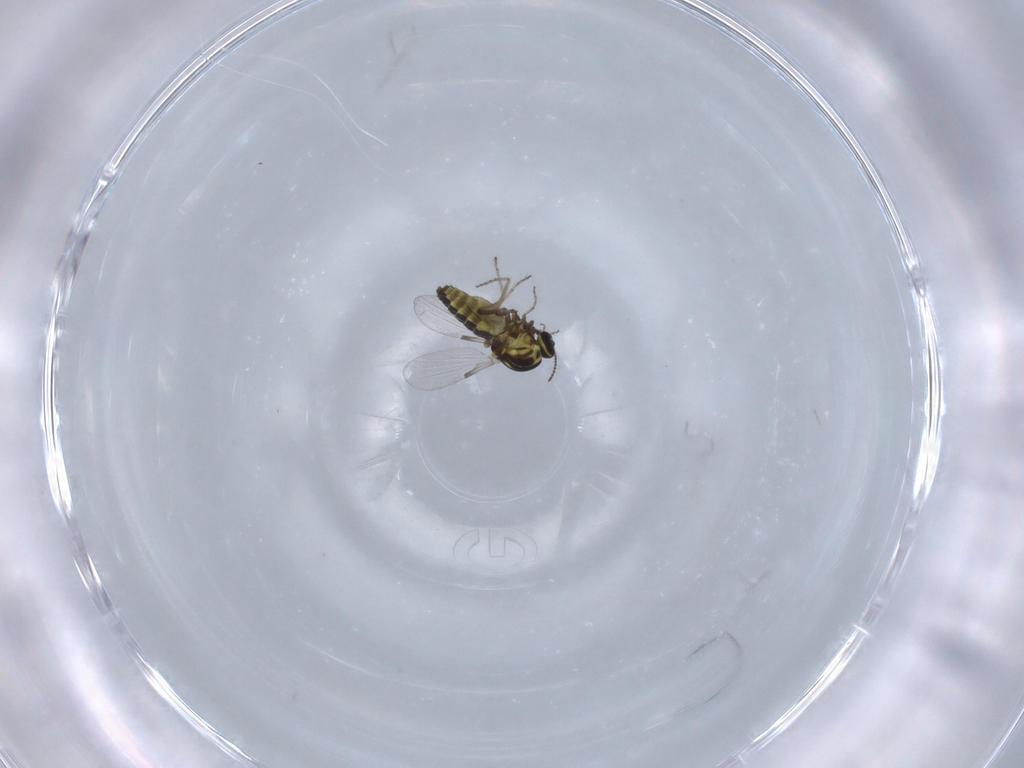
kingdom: Animalia
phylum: Arthropoda
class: Insecta
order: Diptera
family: Ceratopogonidae
